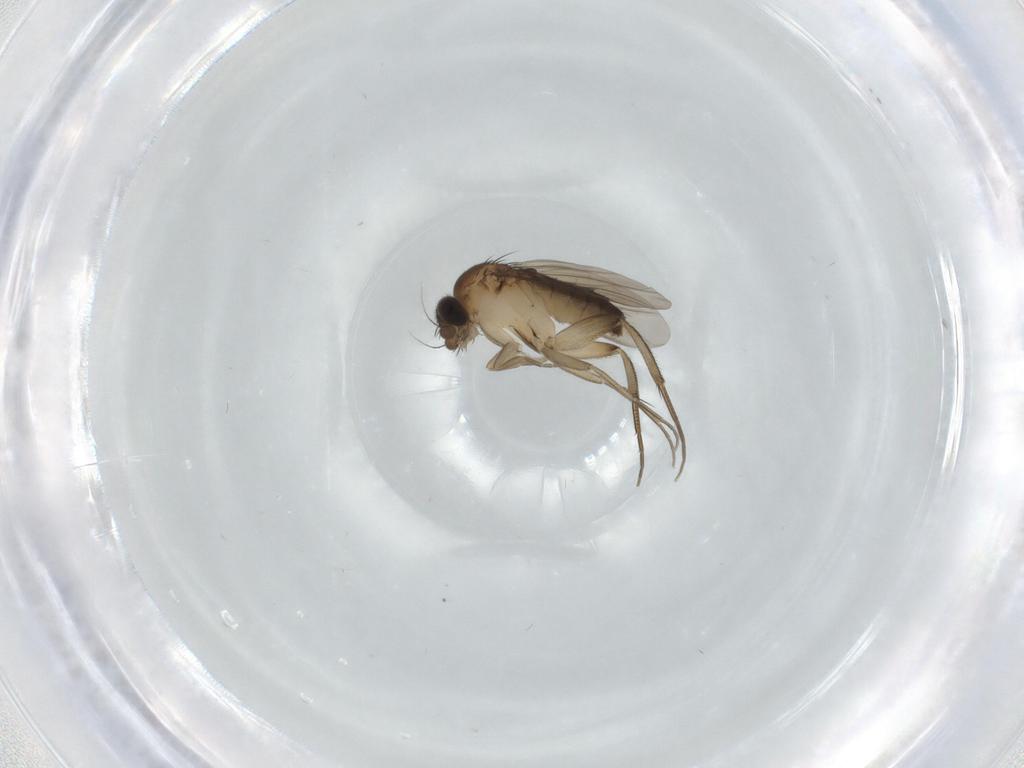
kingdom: Animalia
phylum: Arthropoda
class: Insecta
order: Diptera
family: Phoridae
